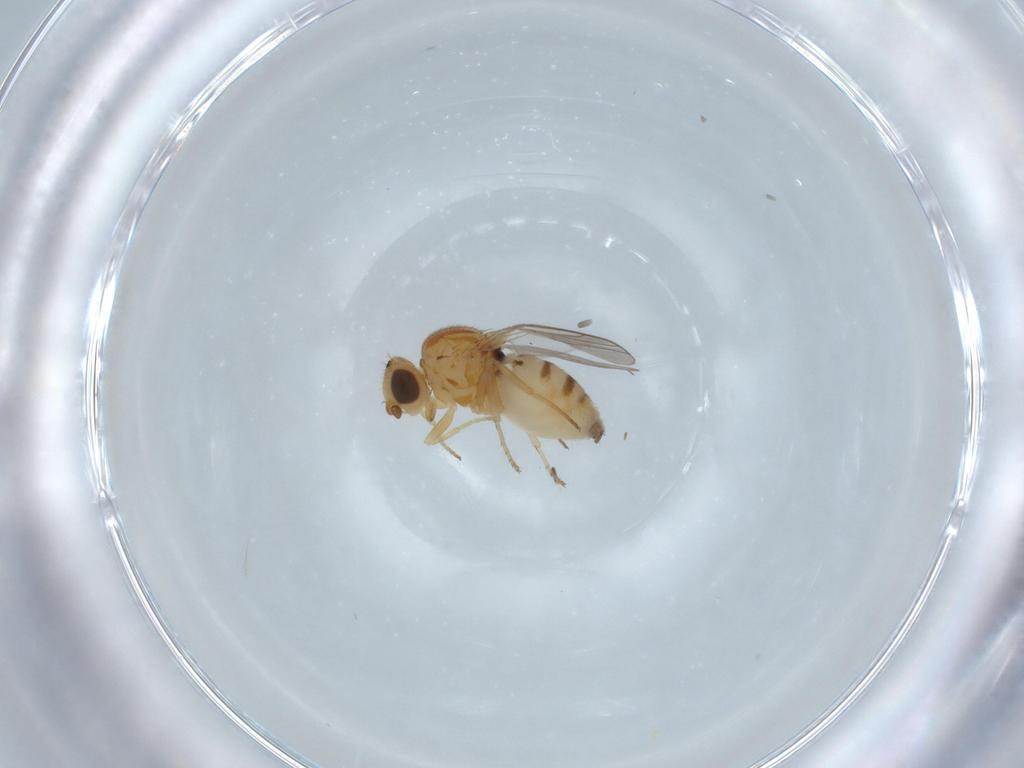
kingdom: Animalia
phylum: Arthropoda
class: Insecta
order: Diptera
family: Chloropidae
